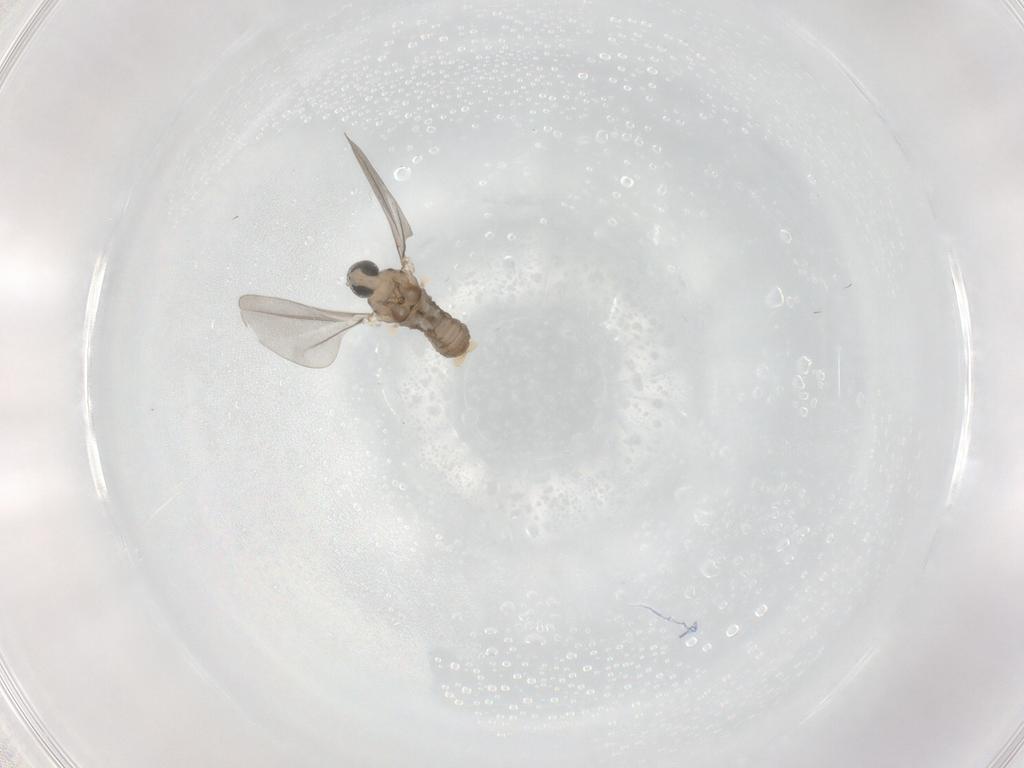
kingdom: Animalia
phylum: Arthropoda
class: Insecta
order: Diptera
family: Cecidomyiidae
